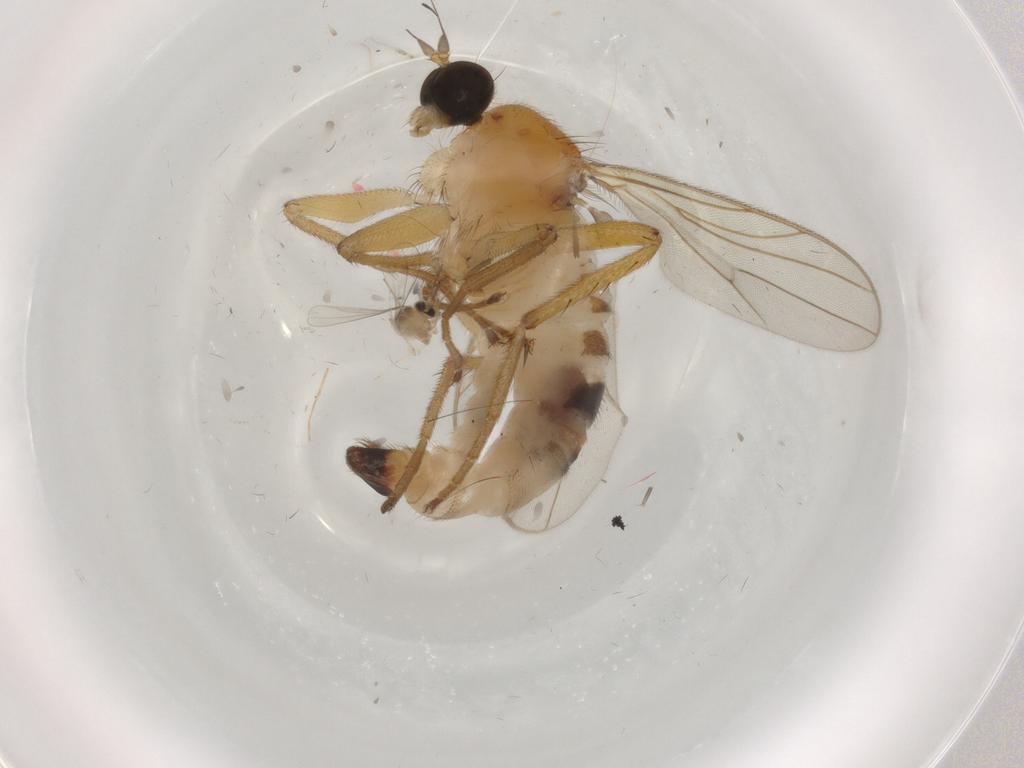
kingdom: Animalia
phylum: Arthropoda
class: Insecta
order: Diptera
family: Hybotidae
